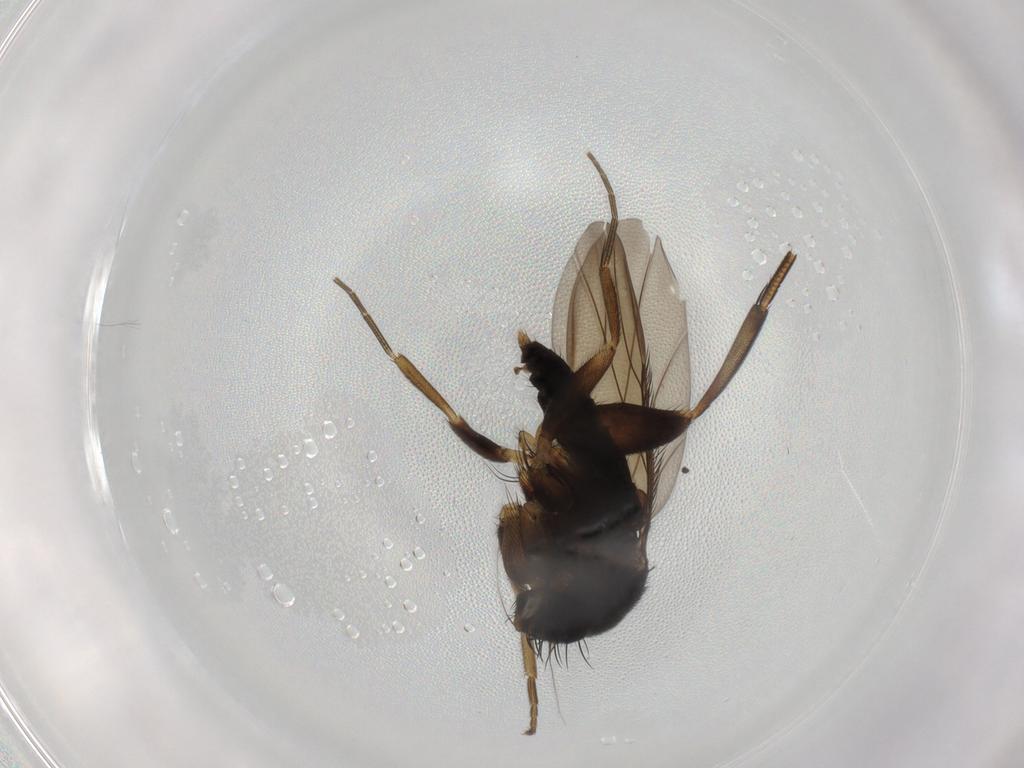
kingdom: Animalia
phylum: Arthropoda
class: Insecta
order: Diptera
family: Phoridae
